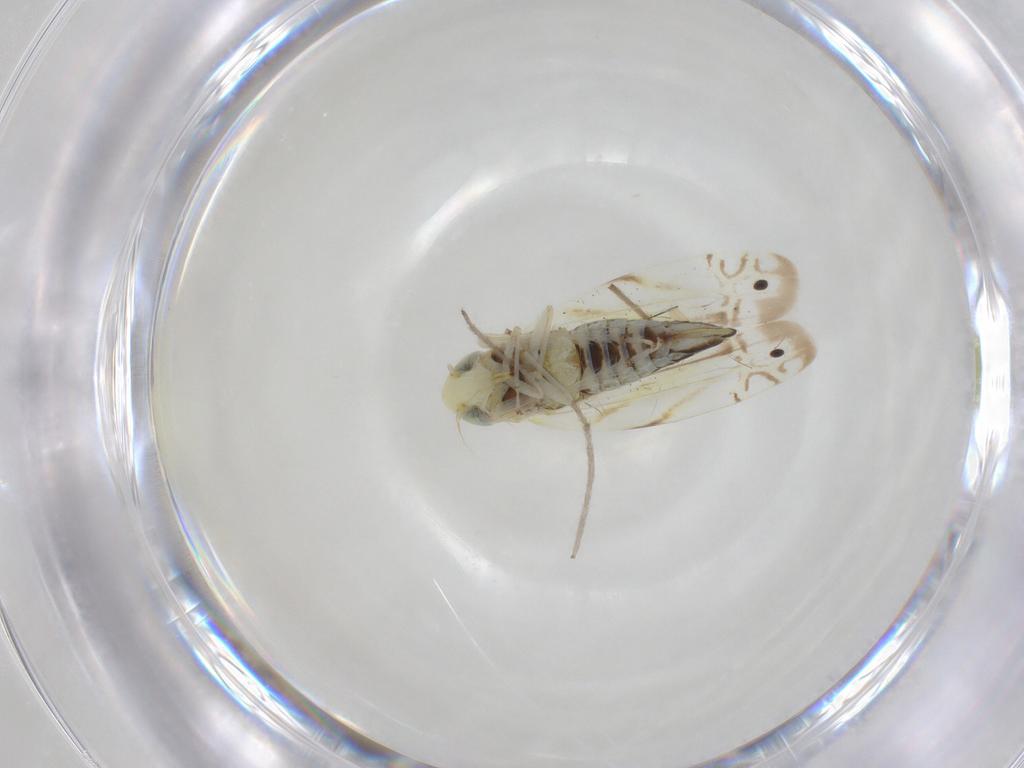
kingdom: Animalia
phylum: Arthropoda
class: Insecta
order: Hemiptera
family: Cicadellidae
